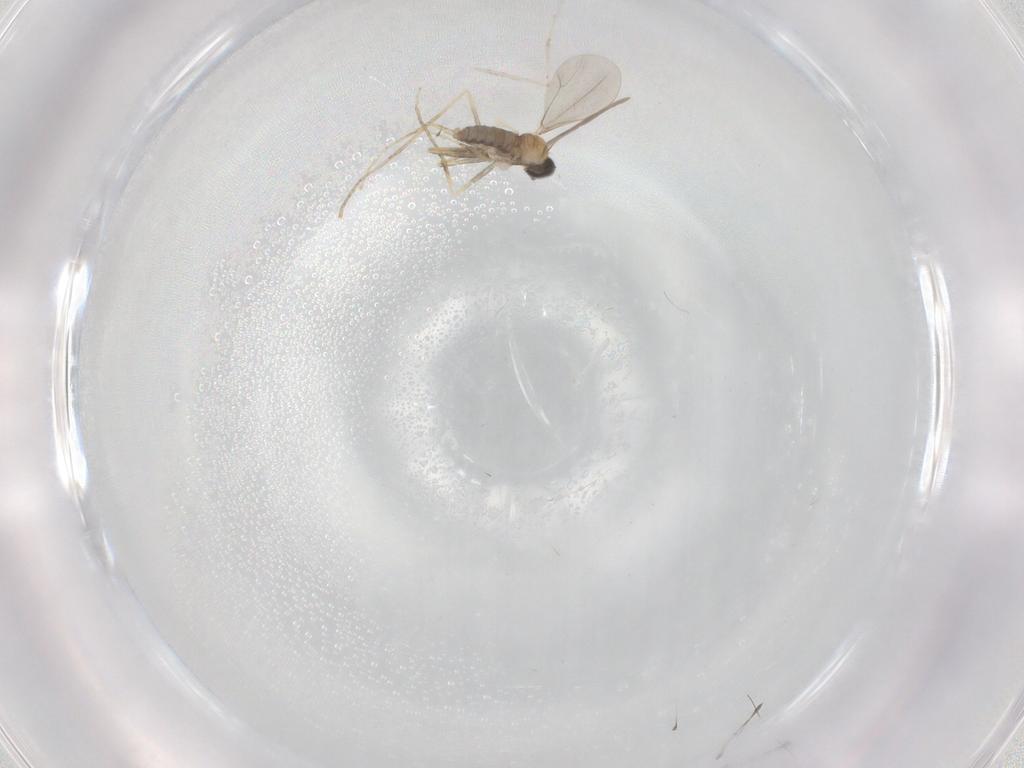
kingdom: Animalia
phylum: Arthropoda
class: Insecta
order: Diptera
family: Cecidomyiidae
